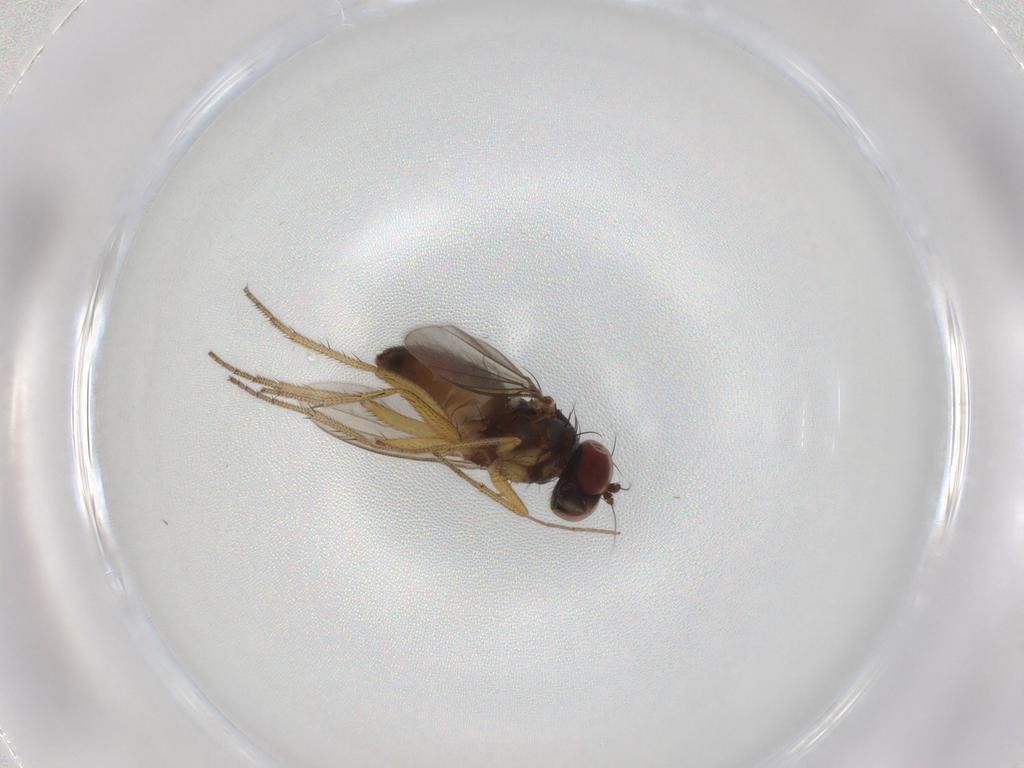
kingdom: Animalia
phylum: Arthropoda
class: Insecta
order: Diptera
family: Dolichopodidae
